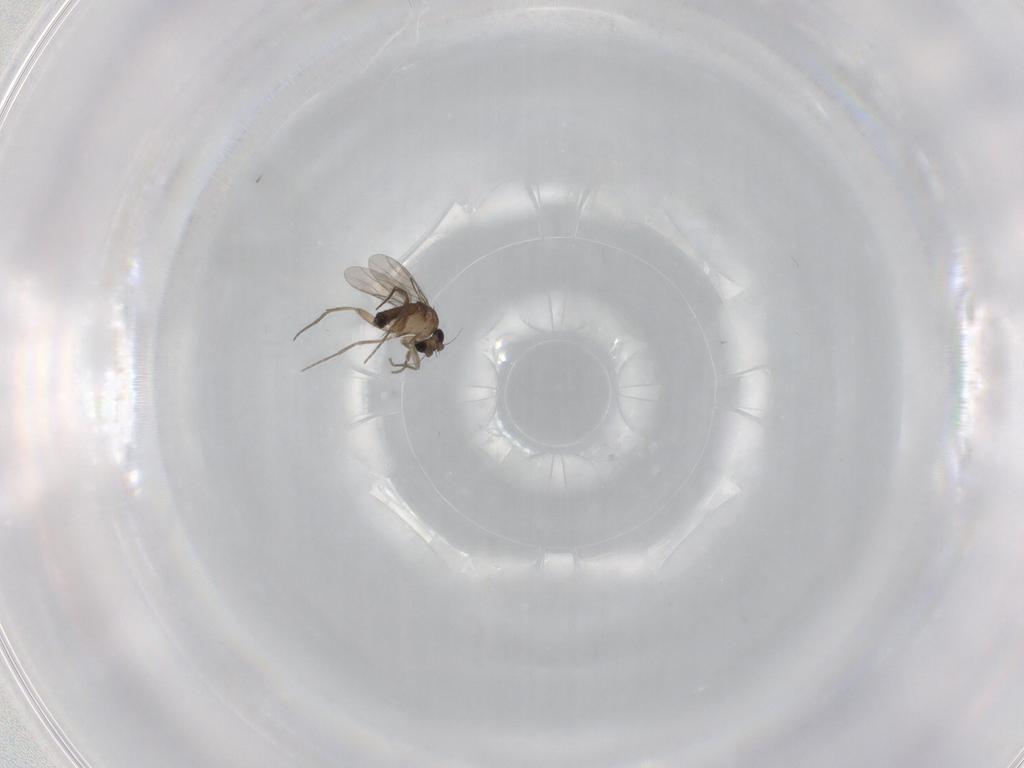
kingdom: Animalia
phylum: Arthropoda
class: Insecta
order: Diptera
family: Phoridae
